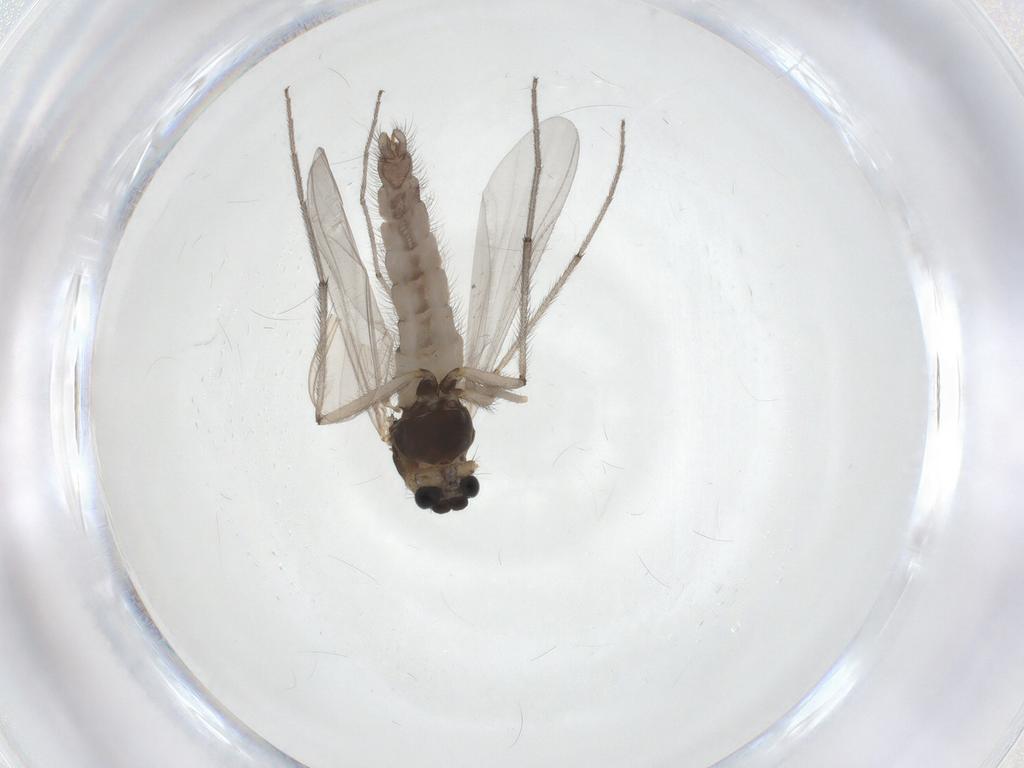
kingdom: Animalia
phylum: Arthropoda
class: Insecta
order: Diptera
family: Chironomidae
